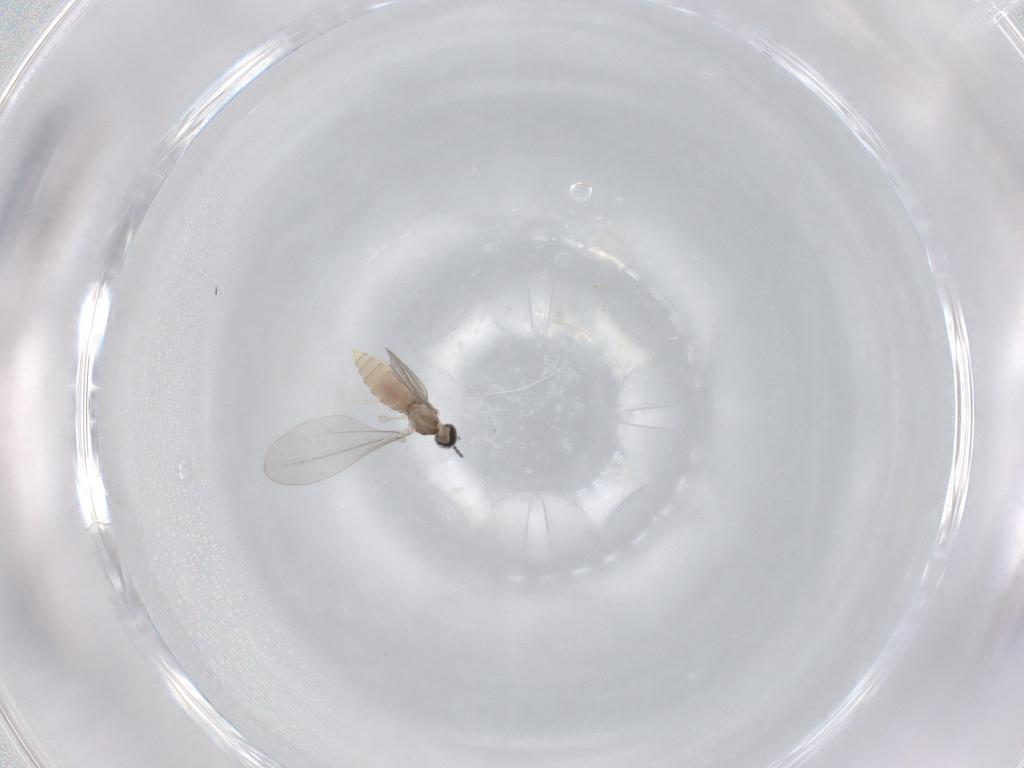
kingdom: Animalia
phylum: Arthropoda
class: Insecta
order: Diptera
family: Cecidomyiidae
